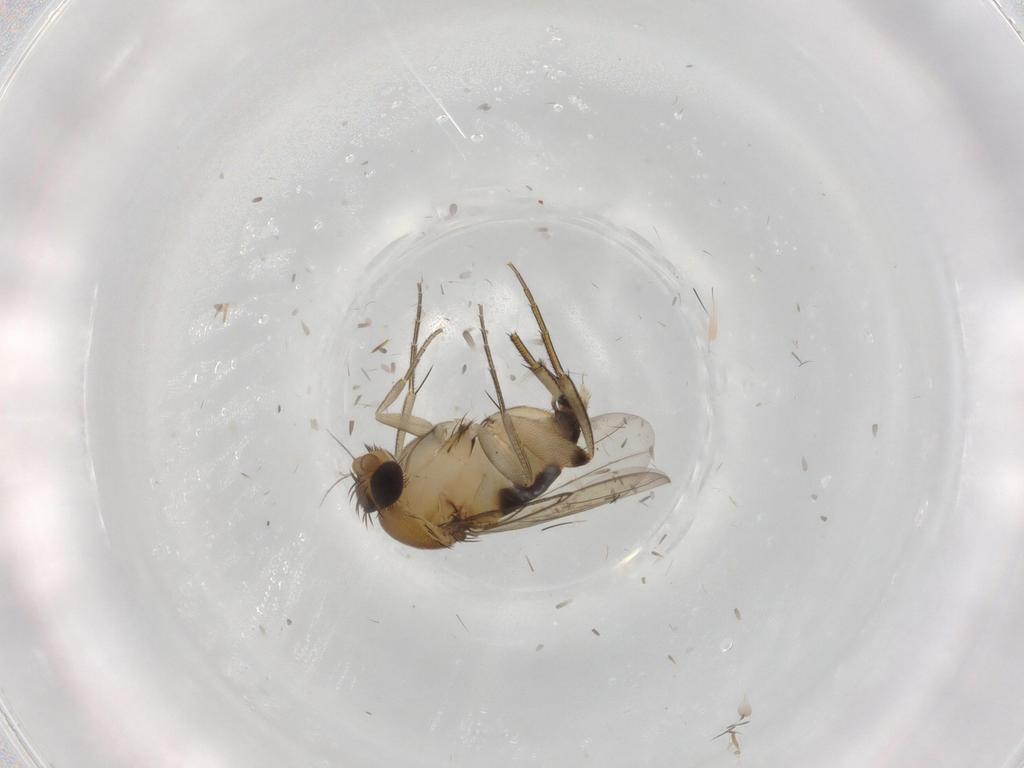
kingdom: Animalia
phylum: Arthropoda
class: Insecta
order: Diptera
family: Phoridae
